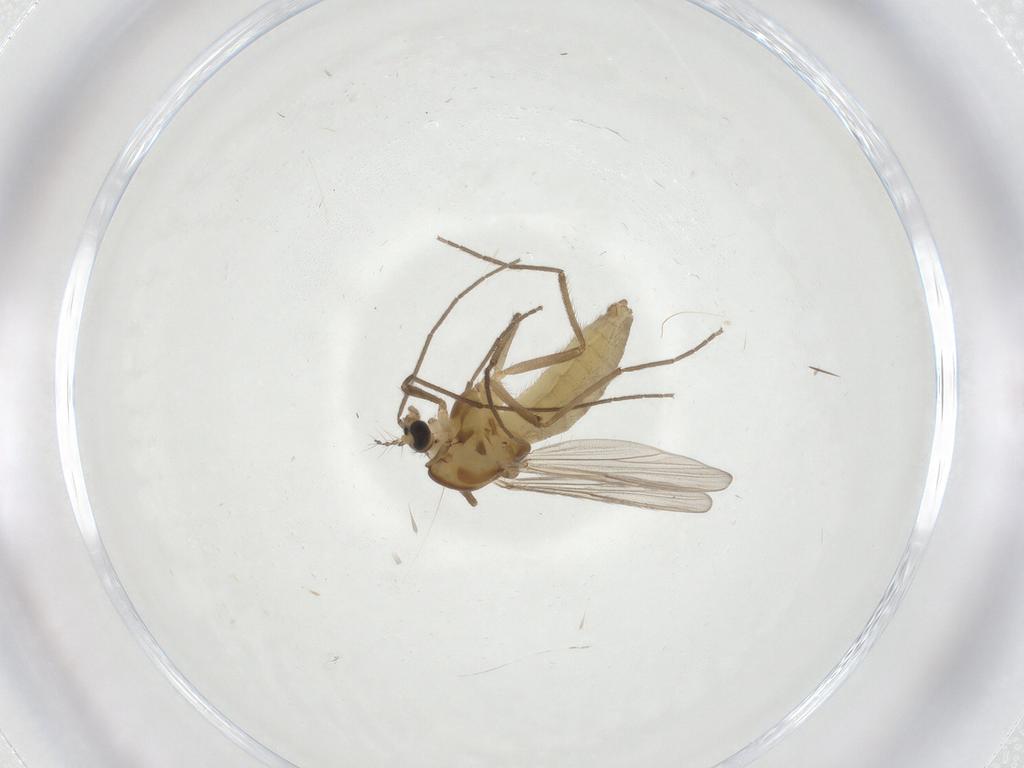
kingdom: Animalia
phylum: Arthropoda
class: Insecta
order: Diptera
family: Chironomidae
